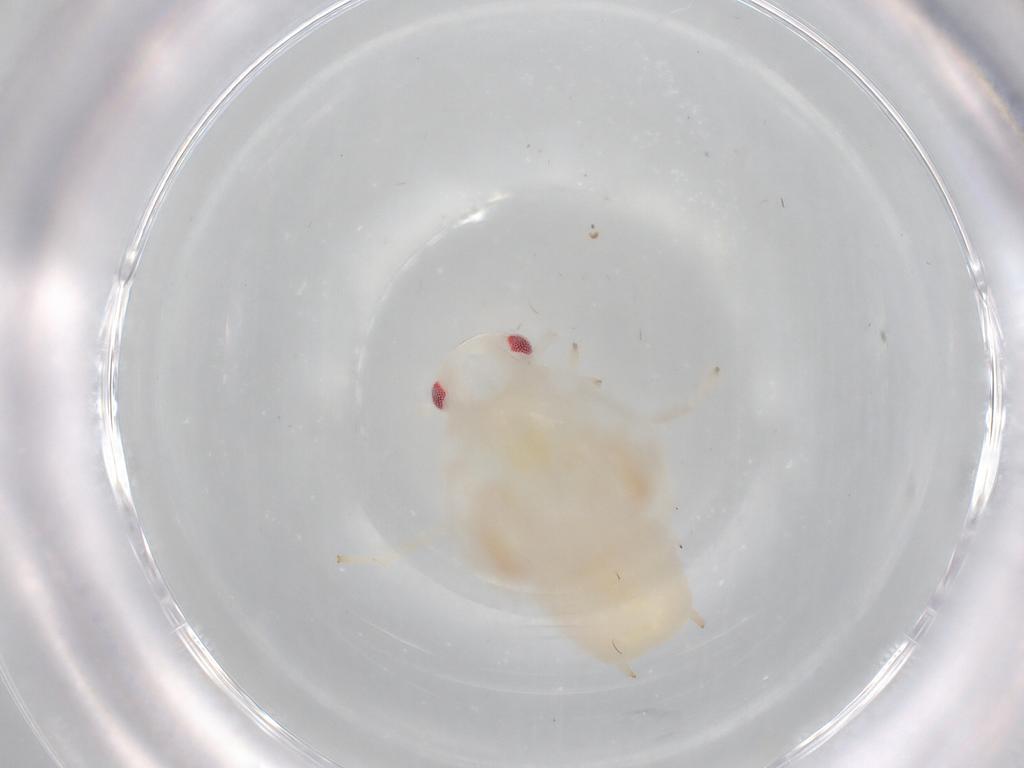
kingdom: Animalia
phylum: Arthropoda
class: Insecta
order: Hemiptera
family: Flatidae
